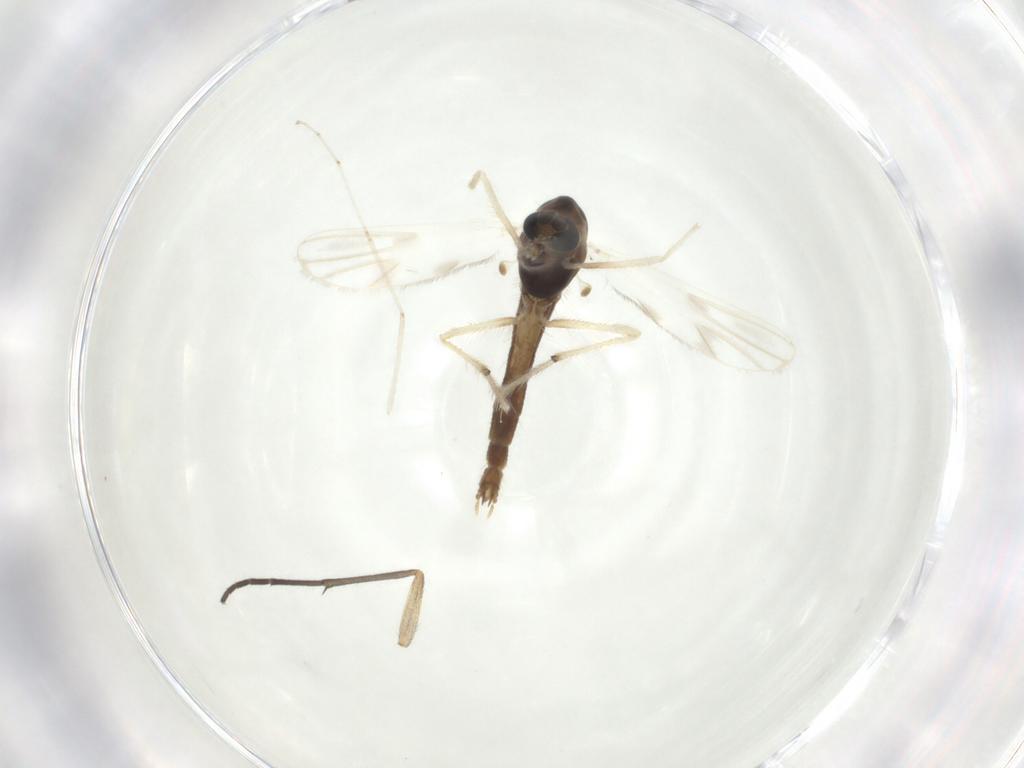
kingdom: Animalia
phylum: Arthropoda
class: Insecta
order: Diptera
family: Chironomidae
